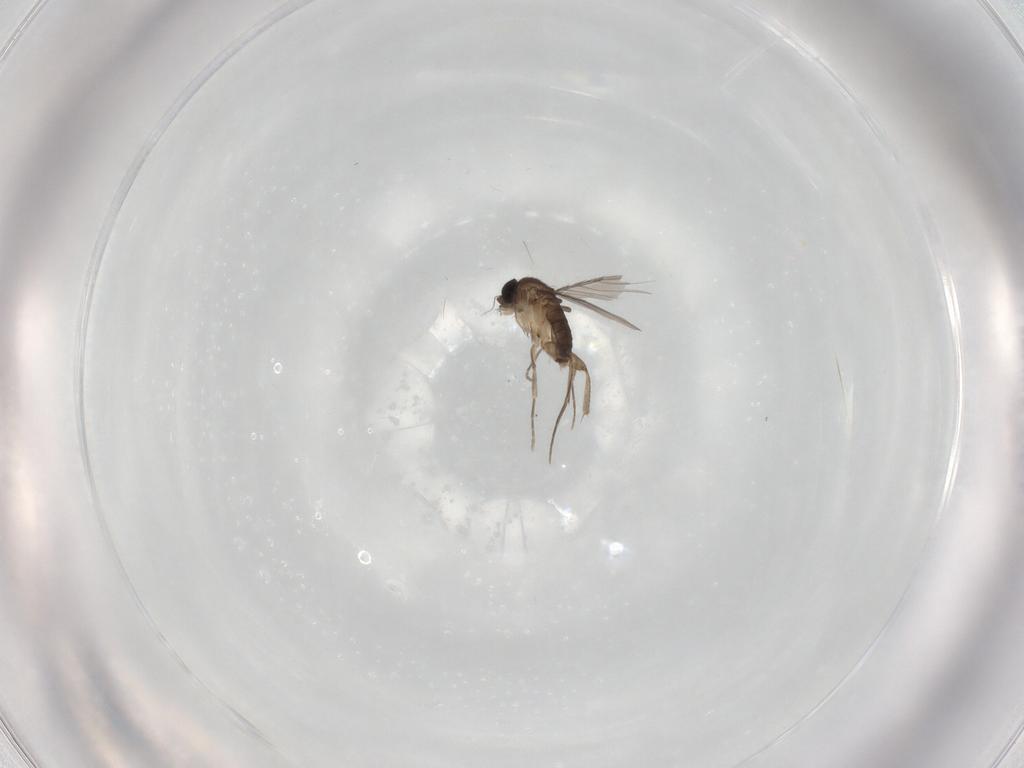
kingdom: Animalia
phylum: Arthropoda
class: Insecta
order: Diptera
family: Phoridae
